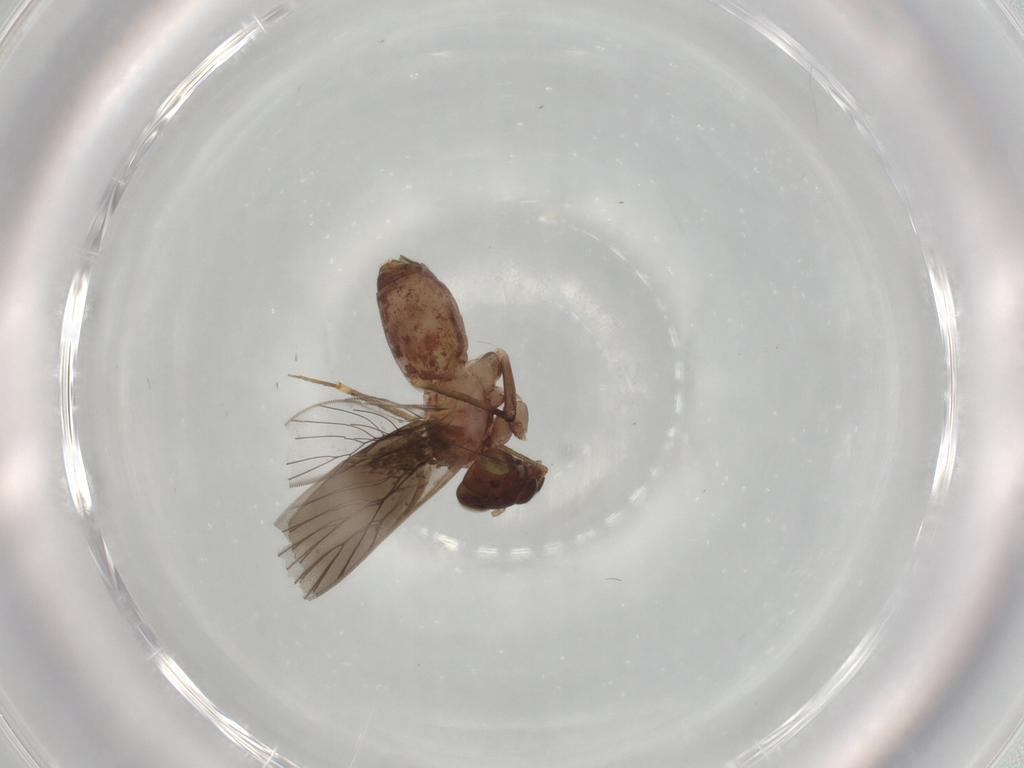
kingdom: Animalia
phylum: Arthropoda
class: Insecta
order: Psocodea
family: Lepidopsocidae
